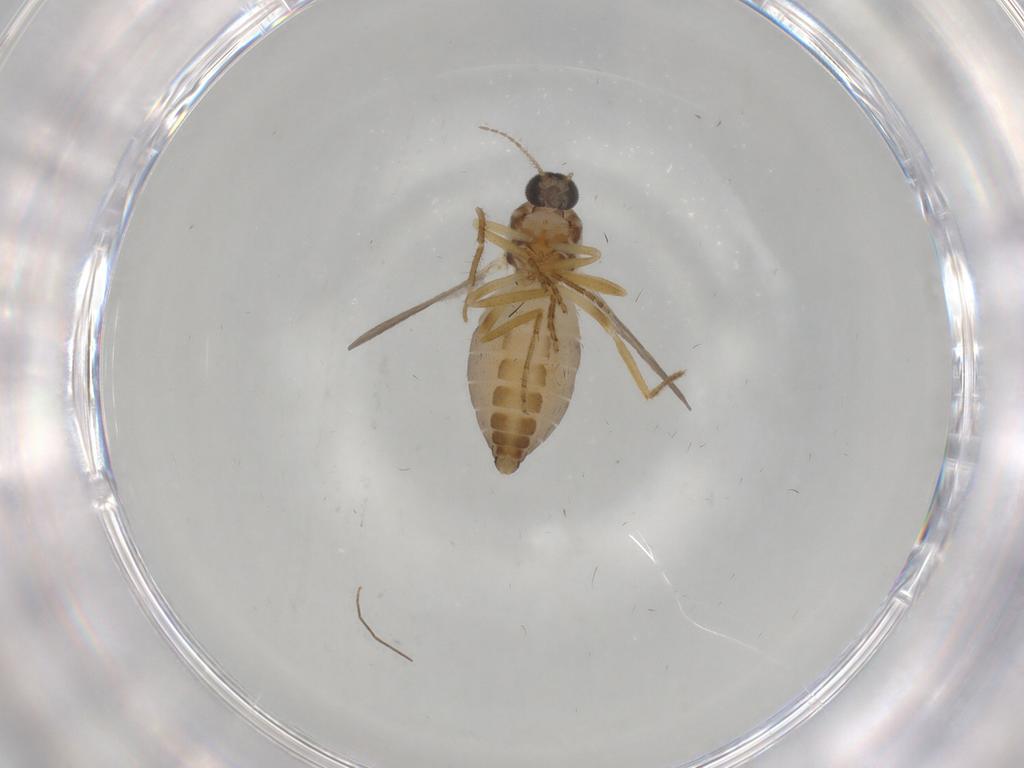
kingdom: Animalia
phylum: Arthropoda
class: Insecta
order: Diptera
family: Ceratopogonidae
